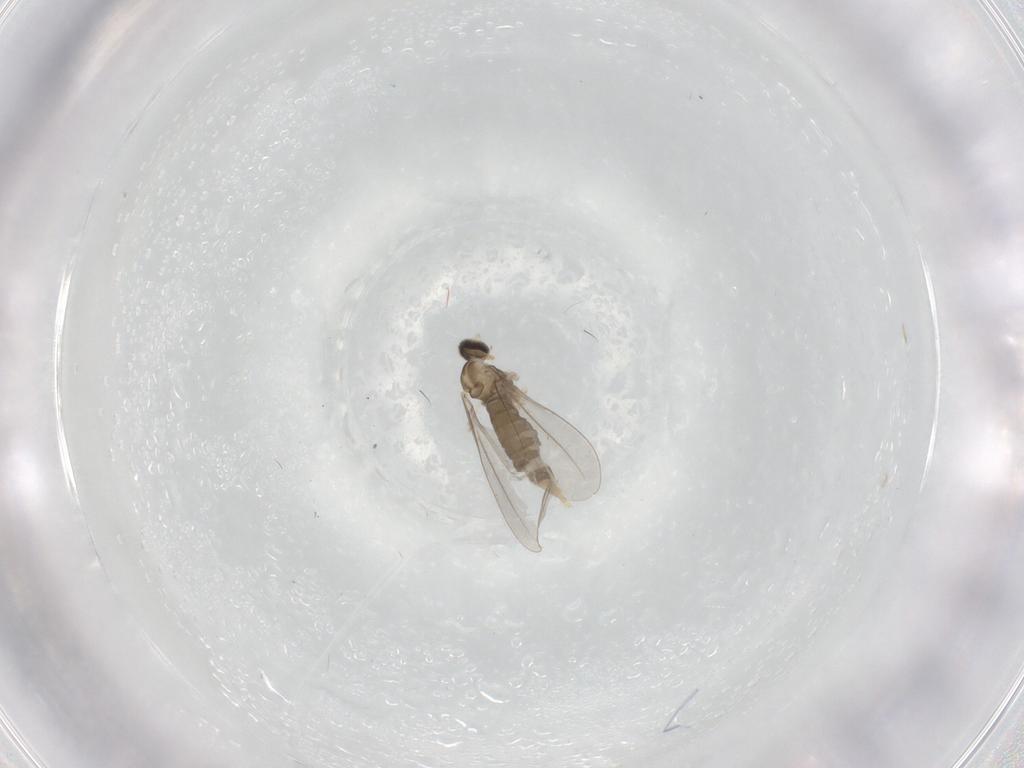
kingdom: Animalia
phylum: Arthropoda
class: Insecta
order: Diptera
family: Cecidomyiidae
